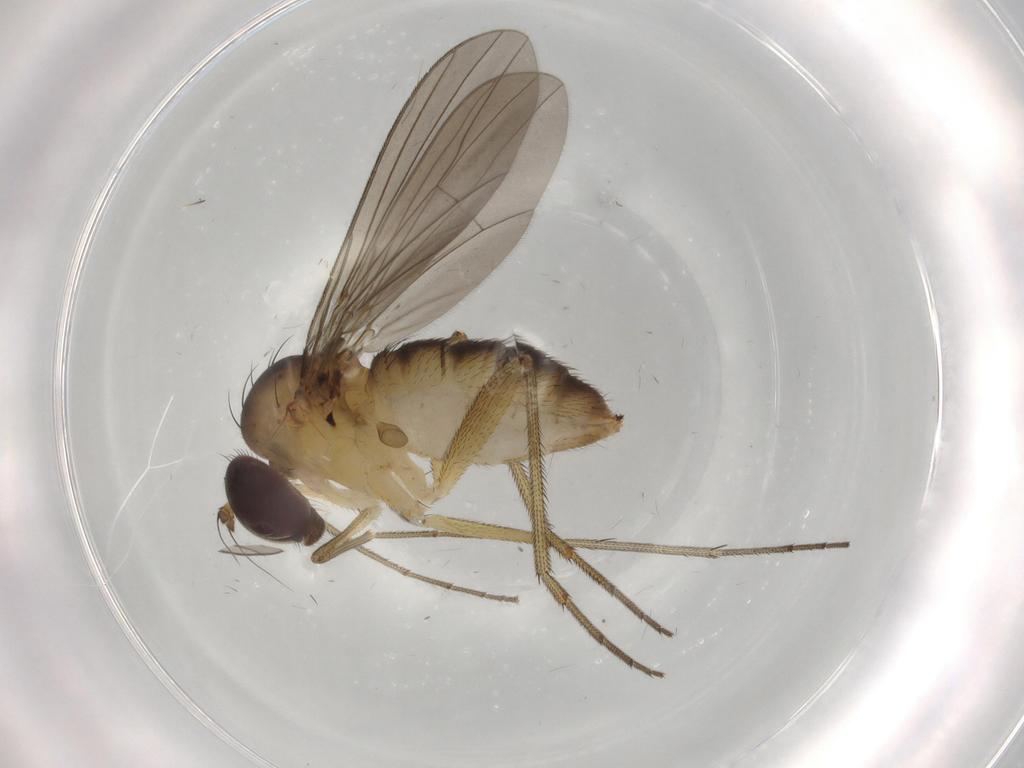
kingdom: Animalia
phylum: Arthropoda
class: Insecta
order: Diptera
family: Dolichopodidae
